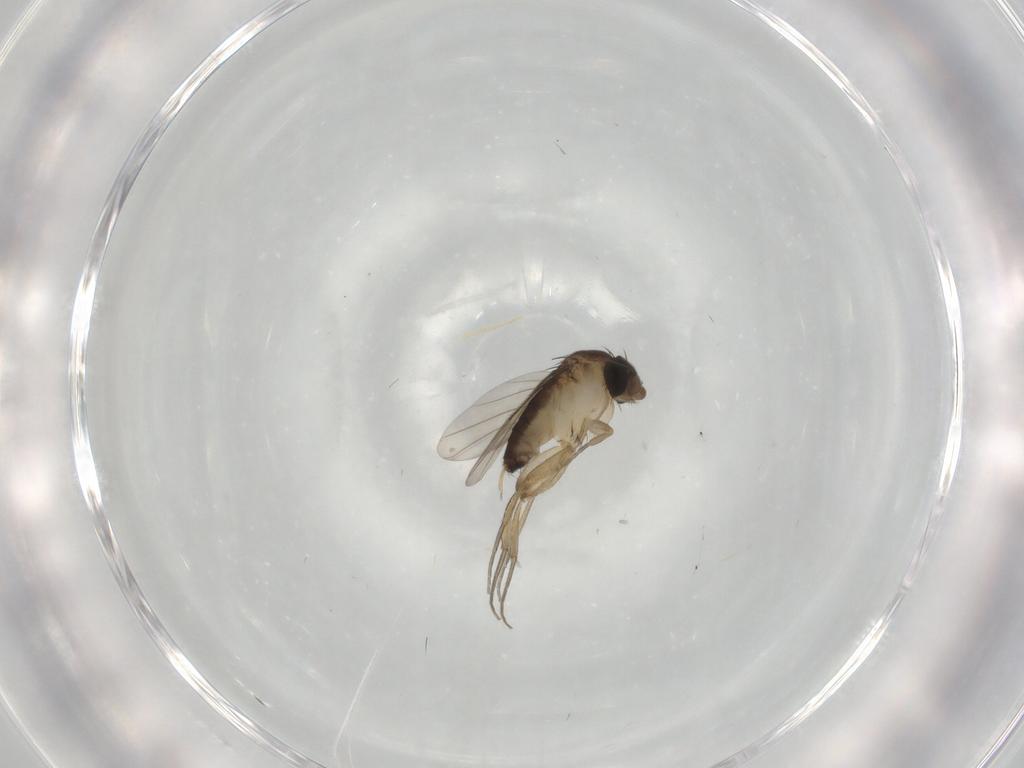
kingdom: Animalia
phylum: Arthropoda
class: Insecta
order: Diptera
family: Phoridae
